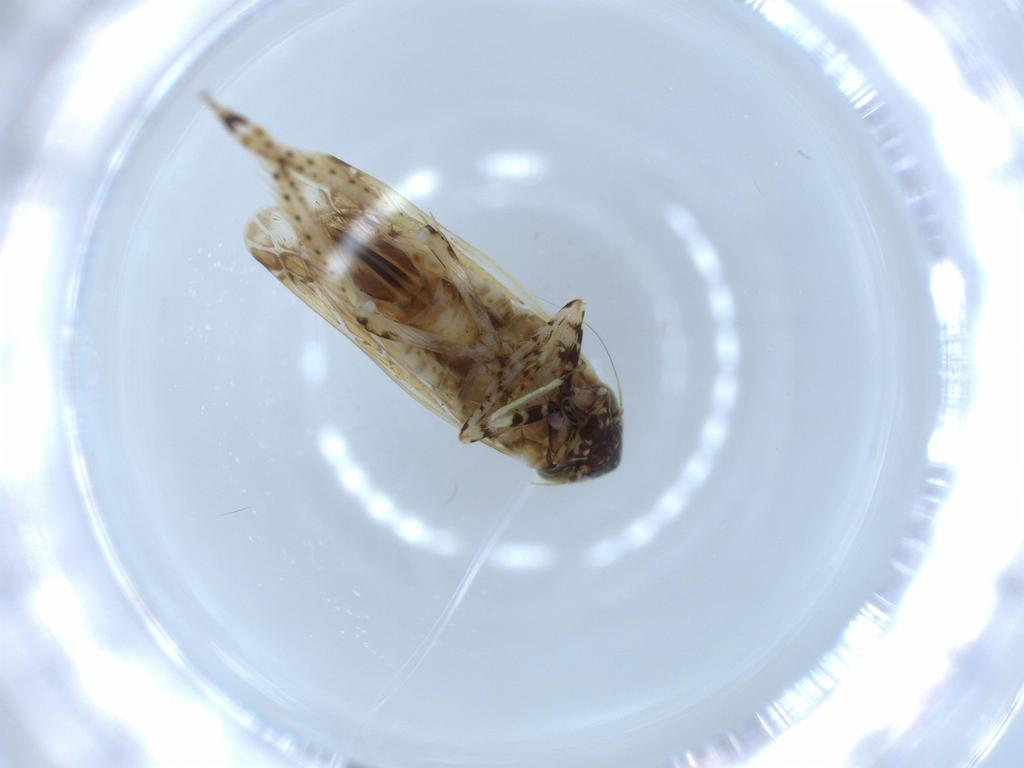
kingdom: Animalia
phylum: Arthropoda
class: Insecta
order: Hemiptera
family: Cicadellidae
